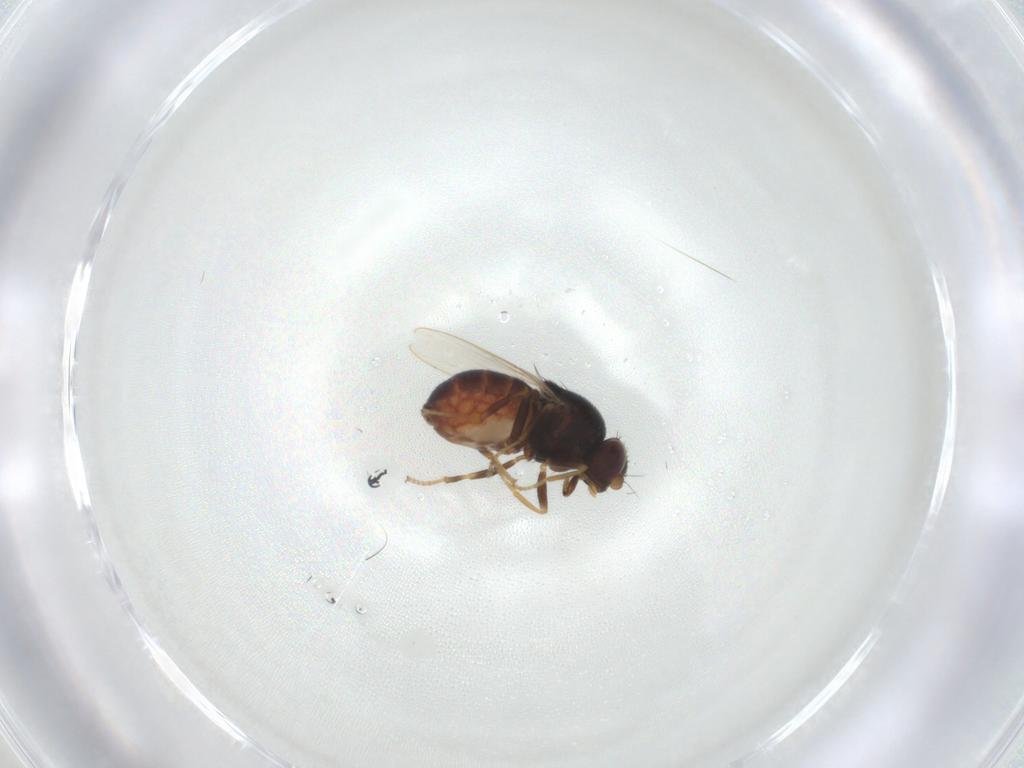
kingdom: Animalia
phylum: Arthropoda
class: Insecta
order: Diptera
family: Chloropidae
